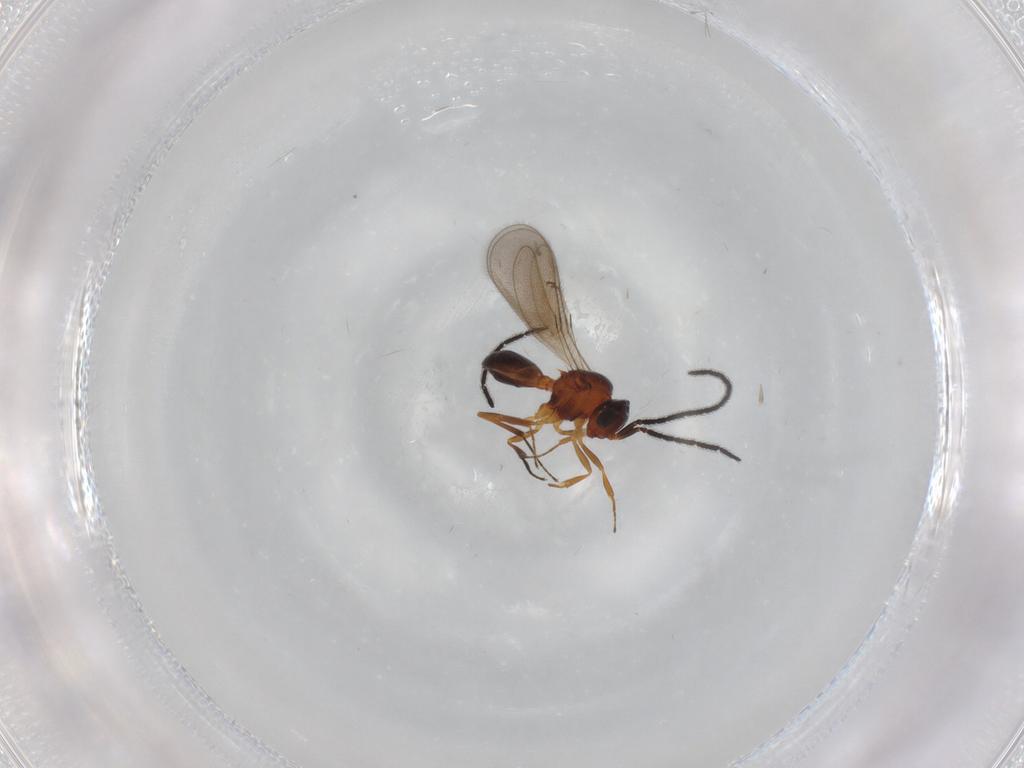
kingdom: Animalia
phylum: Arthropoda
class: Insecta
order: Hymenoptera
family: Scelionidae
